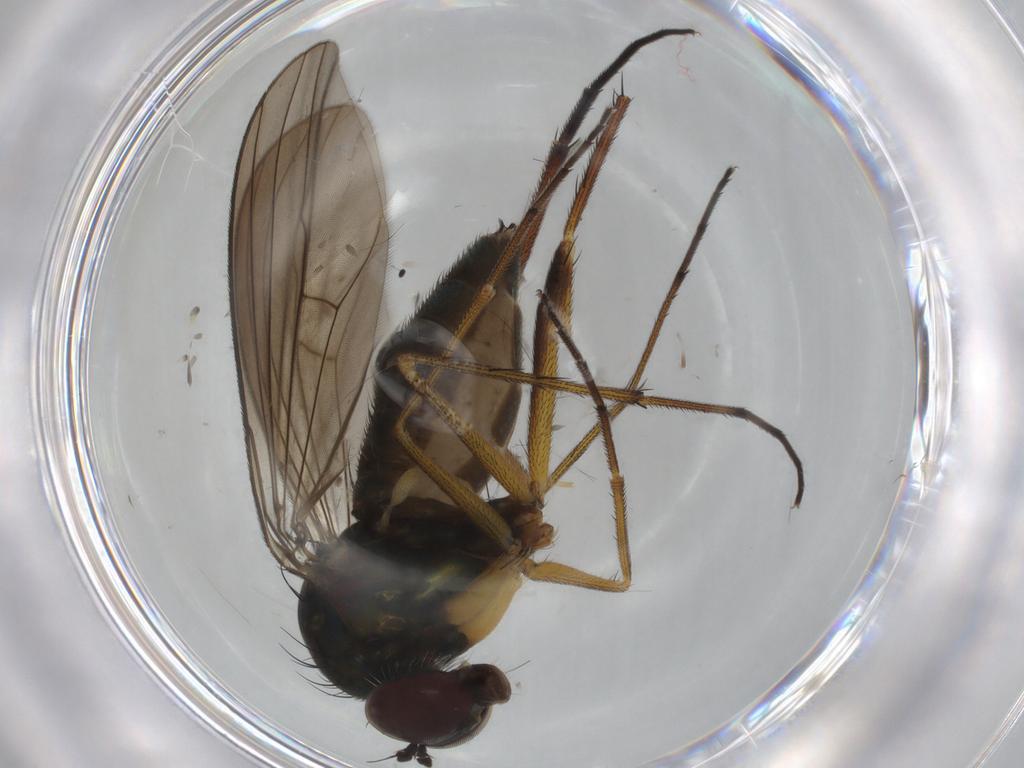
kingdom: Animalia
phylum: Arthropoda
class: Insecta
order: Diptera
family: Dolichopodidae
